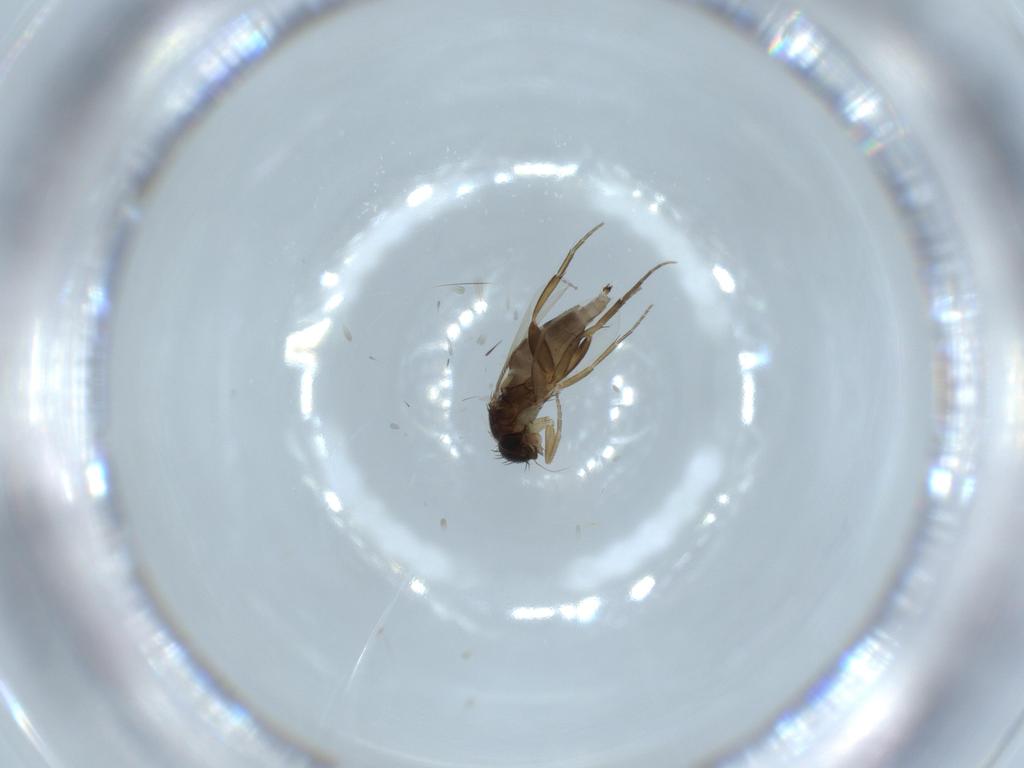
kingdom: Animalia
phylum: Arthropoda
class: Insecta
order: Diptera
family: Phoridae
